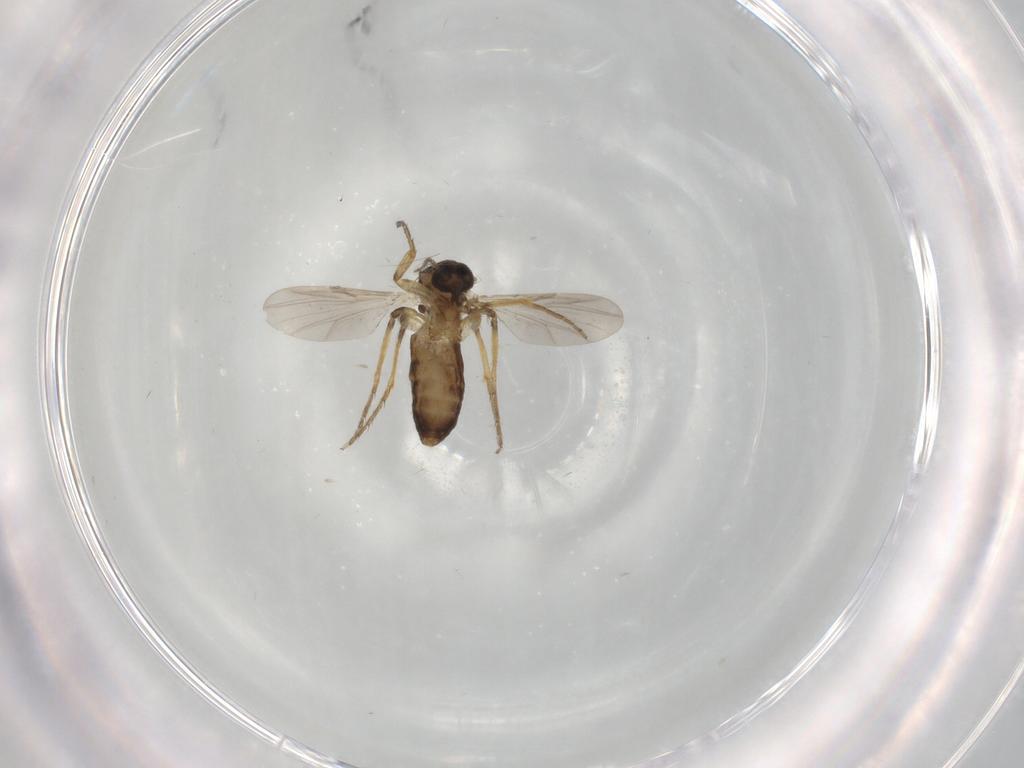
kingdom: Animalia
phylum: Arthropoda
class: Insecta
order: Diptera
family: Ceratopogonidae
